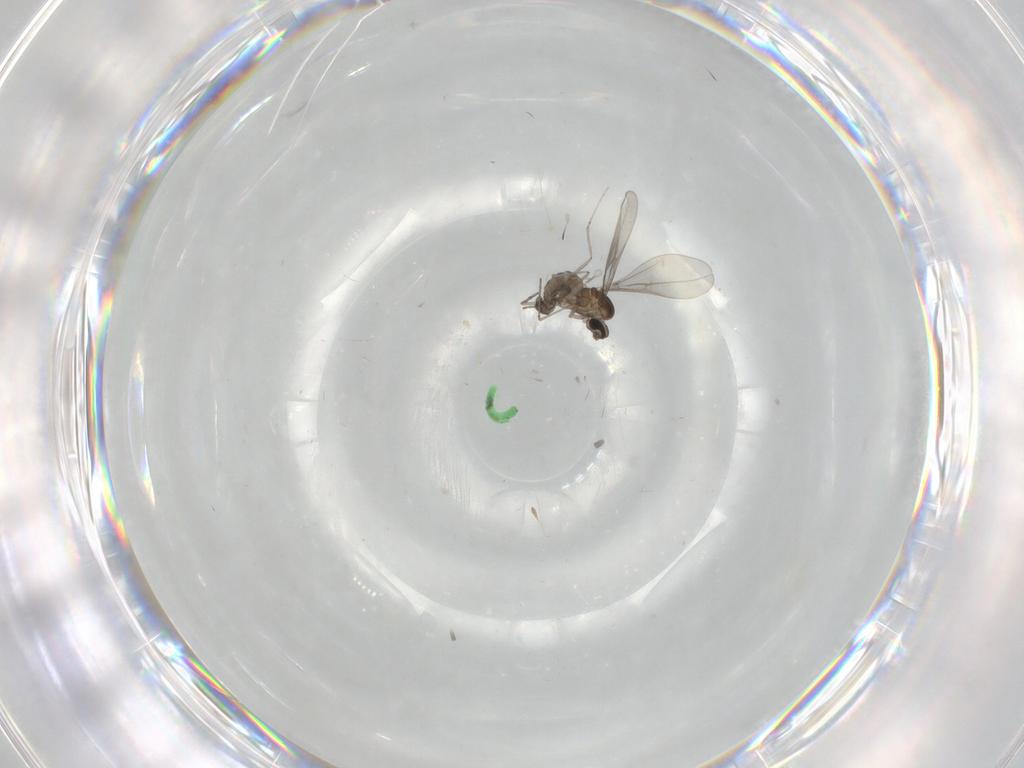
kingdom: Animalia
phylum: Arthropoda
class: Insecta
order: Diptera
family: Cecidomyiidae
